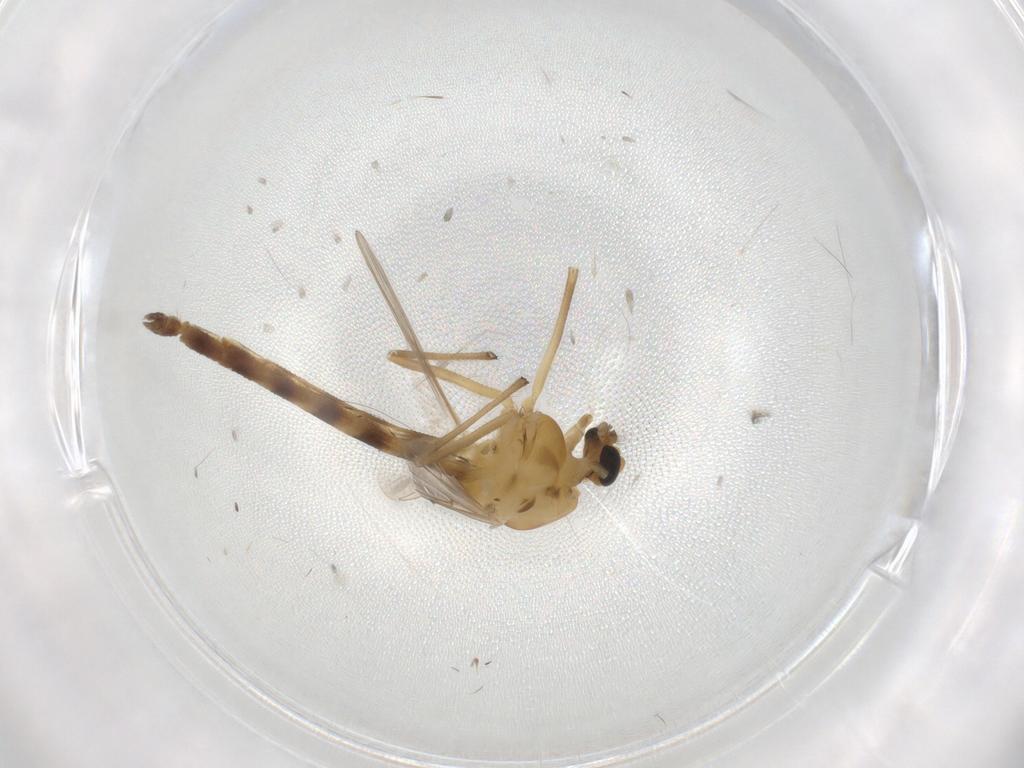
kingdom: Animalia
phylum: Arthropoda
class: Insecta
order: Diptera
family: Chironomidae
